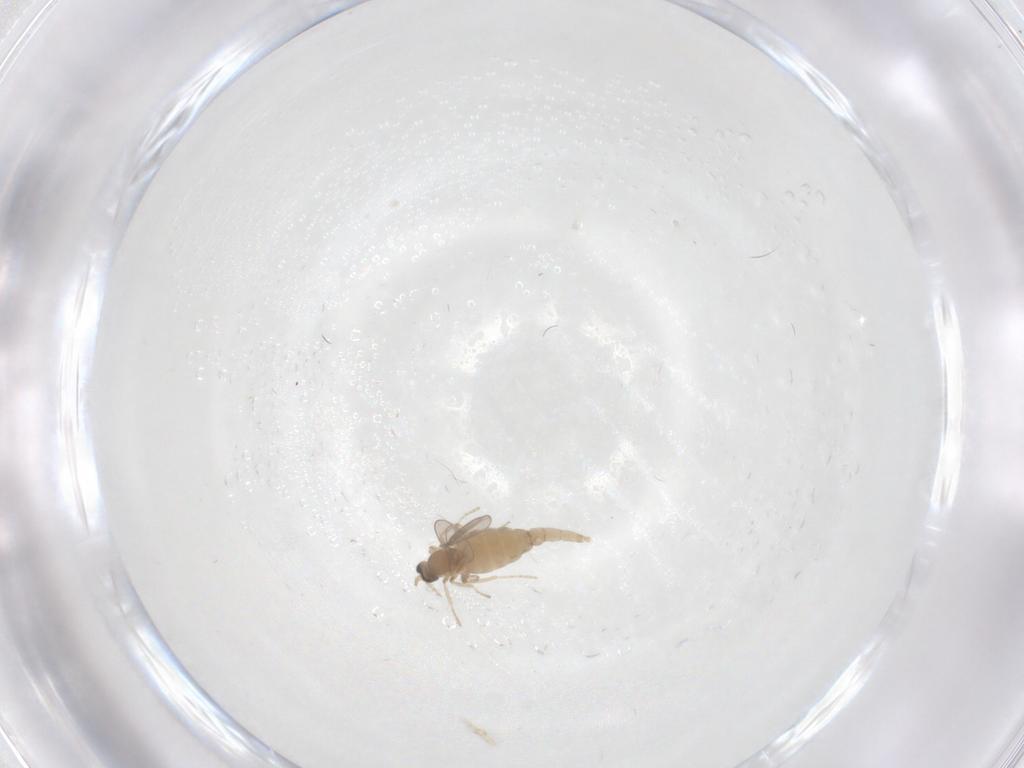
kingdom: Animalia
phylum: Arthropoda
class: Insecta
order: Diptera
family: Cecidomyiidae
